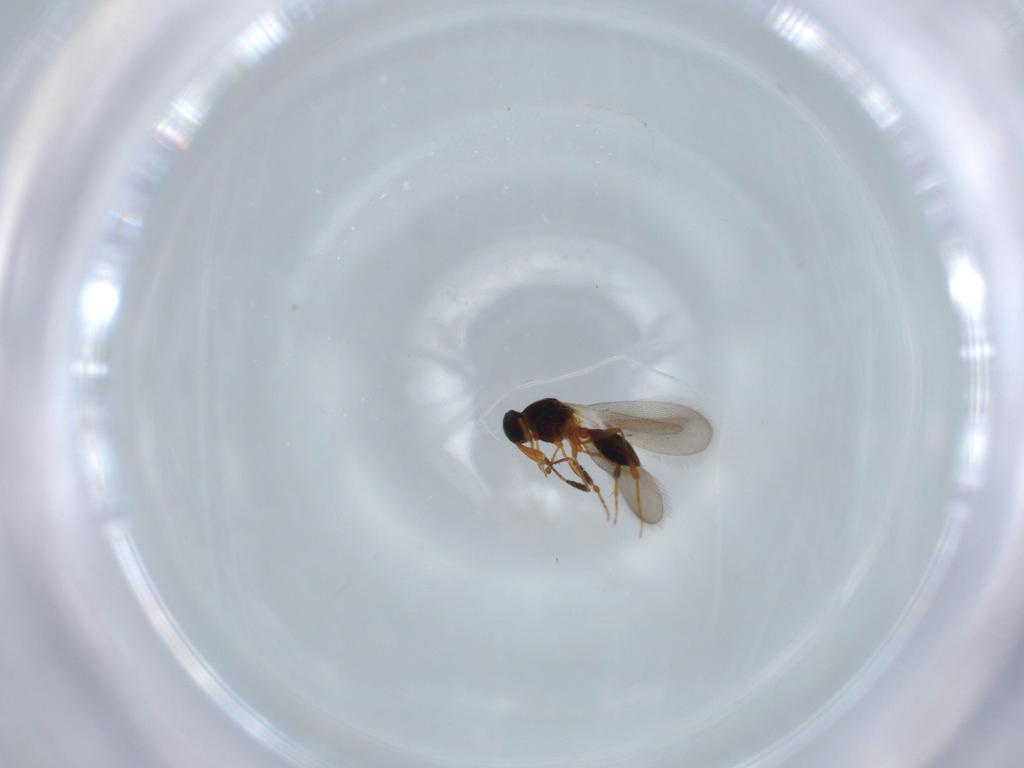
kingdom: Animalia
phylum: Arthropoda
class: Insecta
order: Hymenoptera
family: Platygastridae
